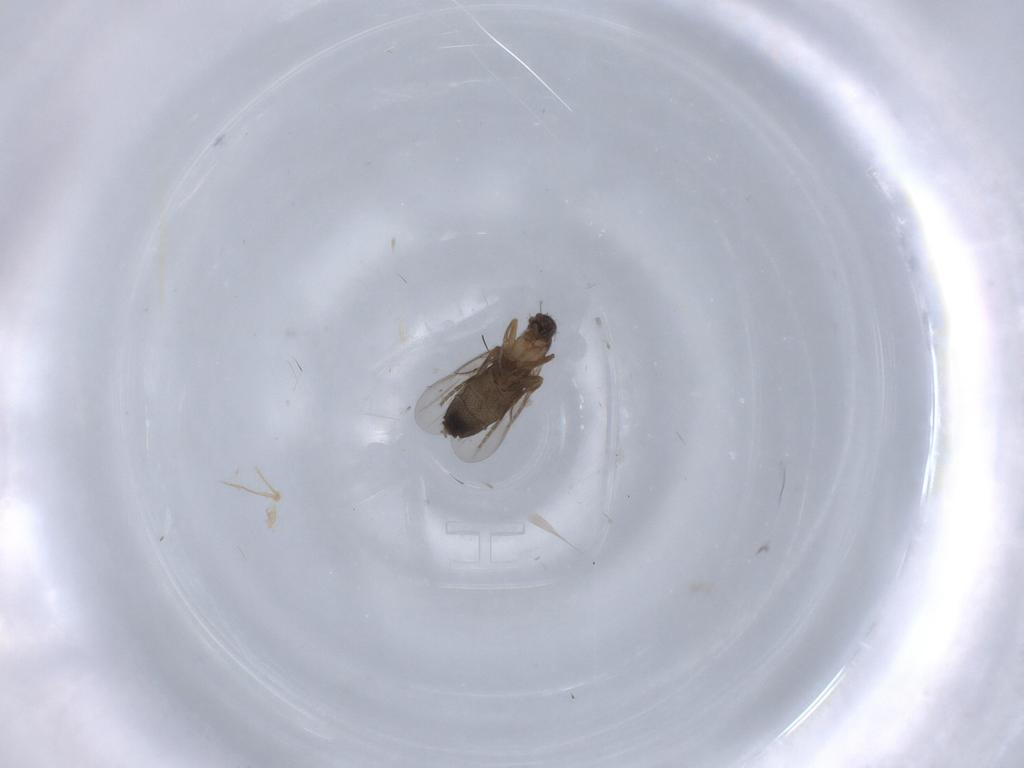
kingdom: Animalia
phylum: Arthropoda
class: Insecta
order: Diptera
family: Phoridae
